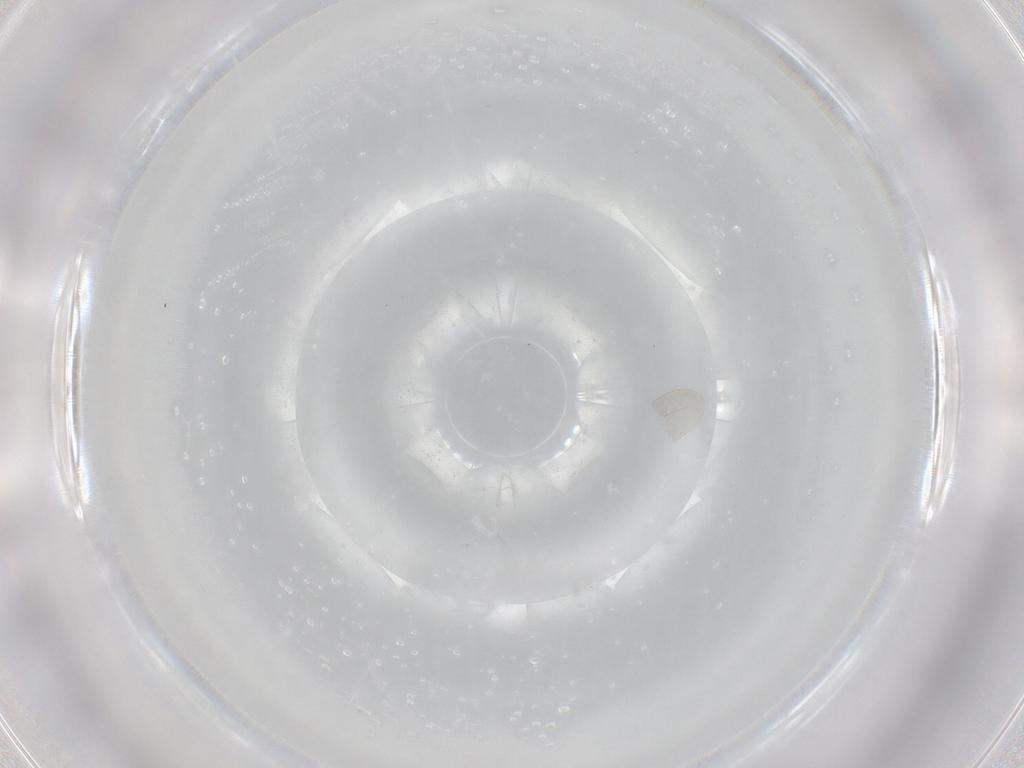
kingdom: Animalia
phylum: Arthropoda
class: Insecta
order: Diptera
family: Cecidomyiidae
